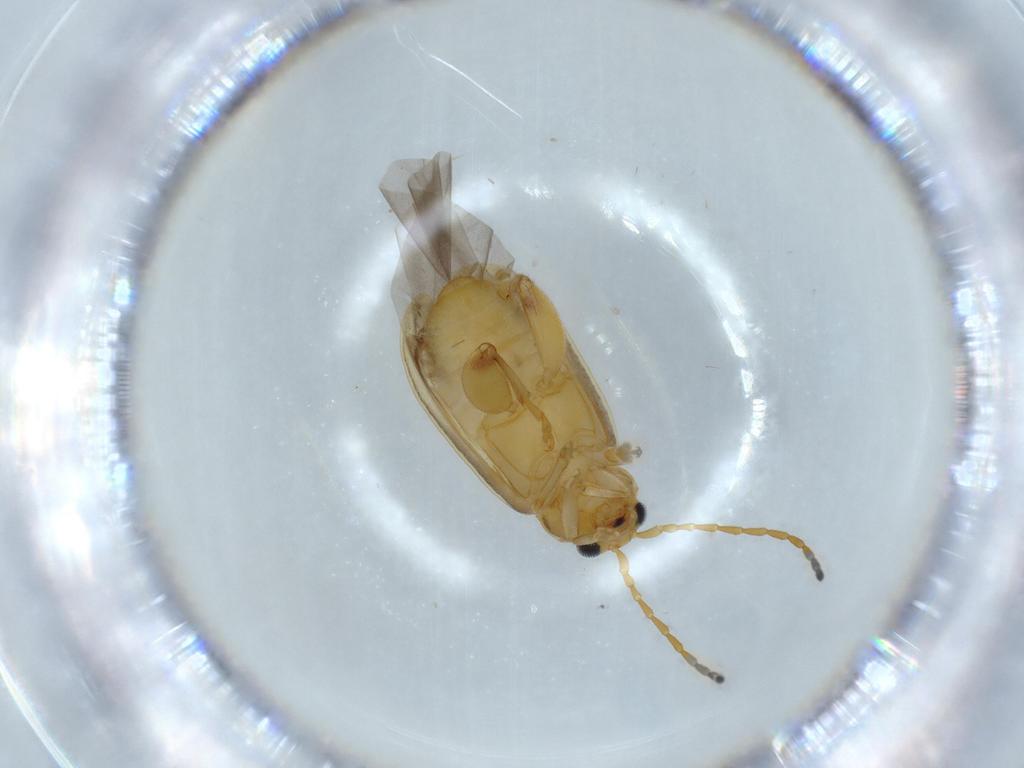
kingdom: Animalia
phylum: Arthropoda
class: Insecta
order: Coleoptera
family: Chrysomelidae
